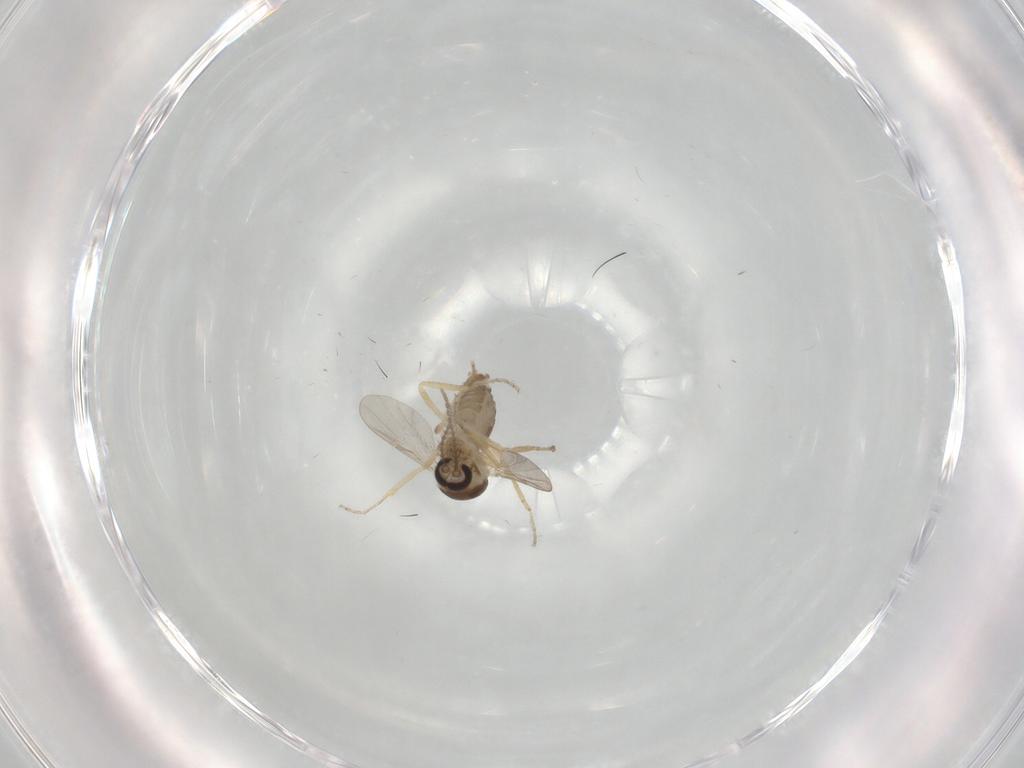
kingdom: Animalia
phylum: Arthropoda
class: Insecta
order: Diptera
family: Ceratopogonidae
